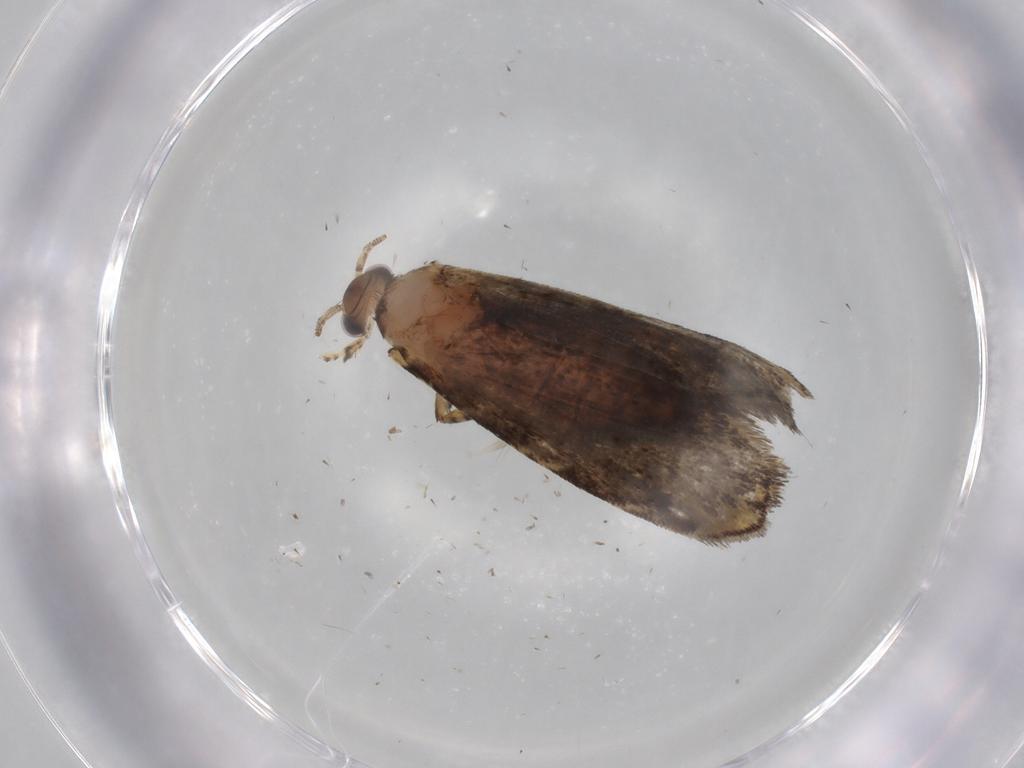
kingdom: Animalia
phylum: Arthropoda
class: Insecta
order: Lepidoptera
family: Tineidae
